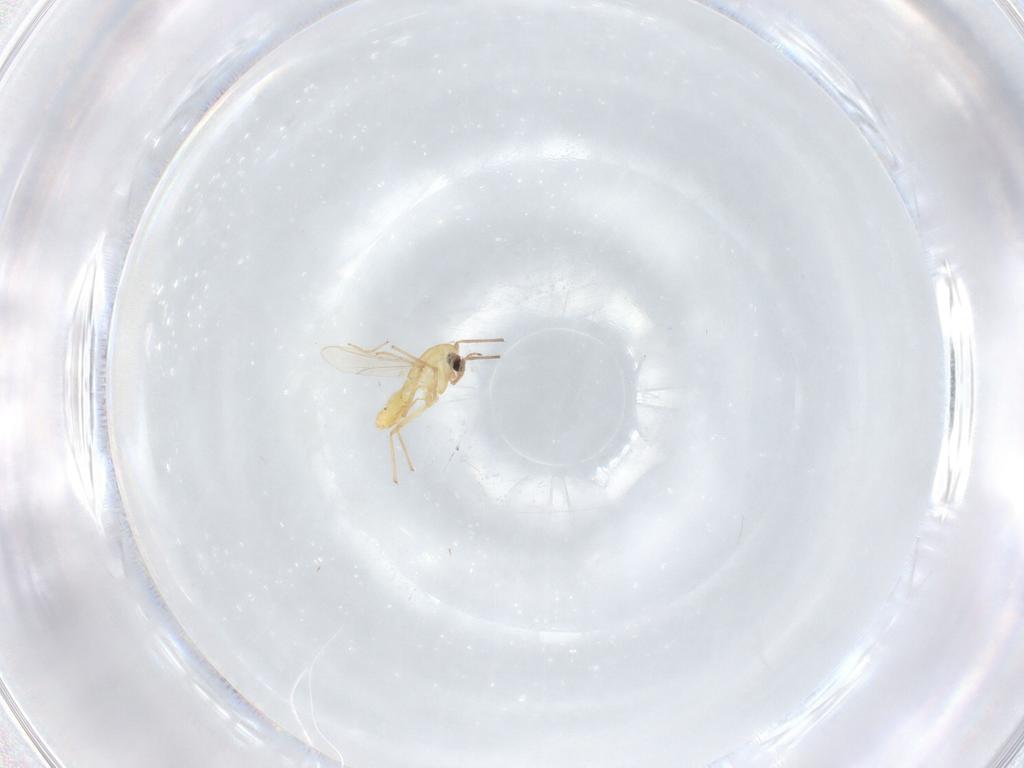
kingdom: Animalia
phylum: Arthropoda
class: Insecta
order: Diptera
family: Chironomidae
